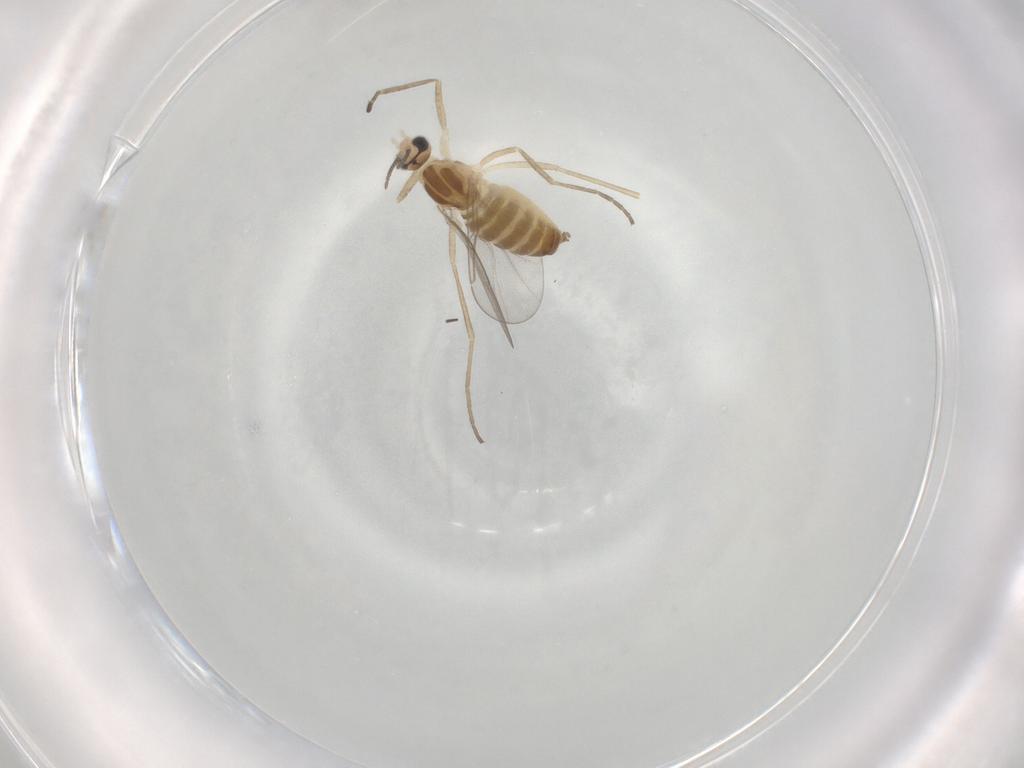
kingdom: Animalia
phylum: Arthropoda
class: Insecta
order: Diptera
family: Cecidomyiidae
